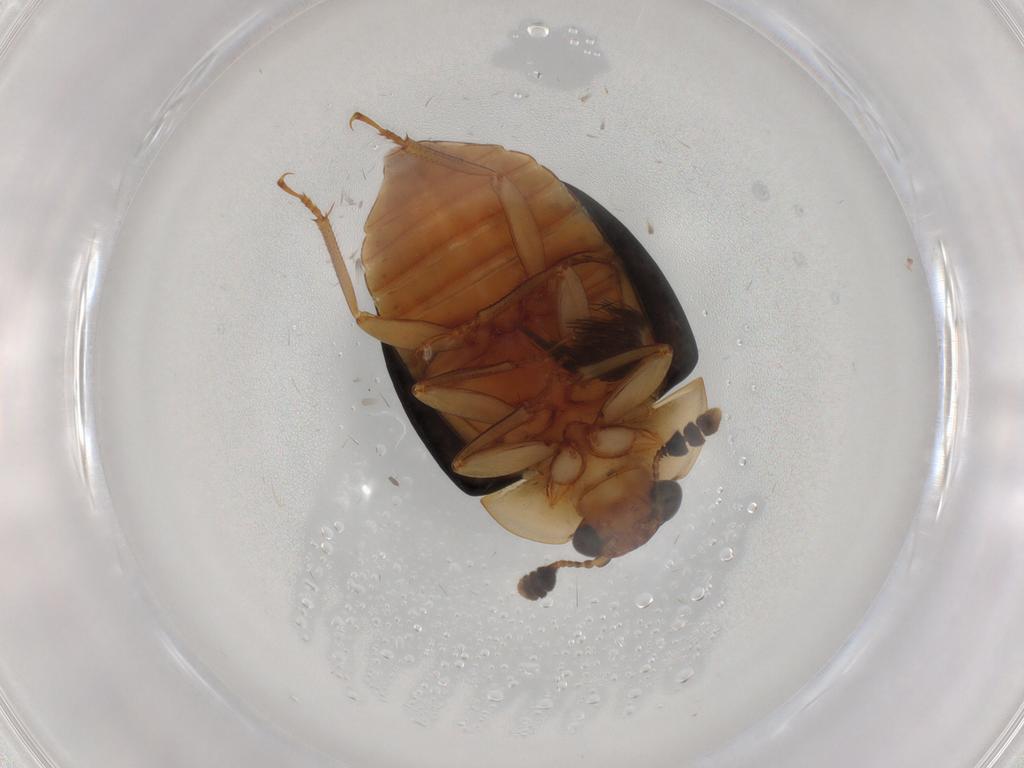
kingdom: Animalia
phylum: Arthropoda
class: Insecta
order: Coleoptera
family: Nitidulidae
